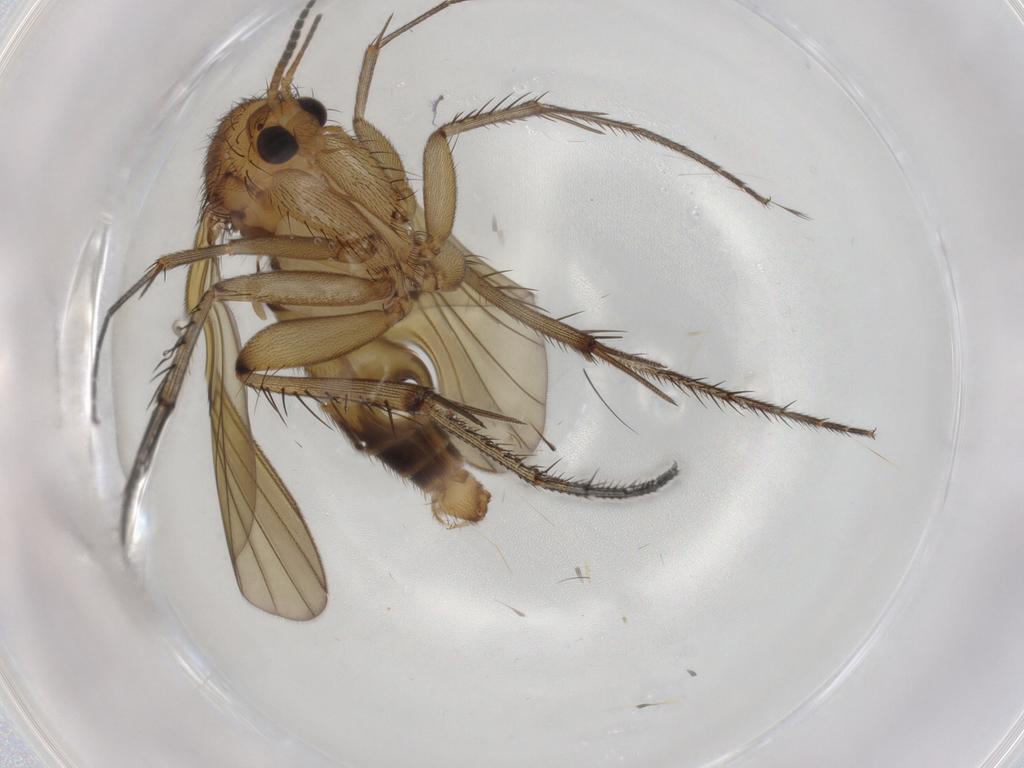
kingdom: Animalia
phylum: Arthropoda
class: Insecta
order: Diptera
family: Mycetophilidae
